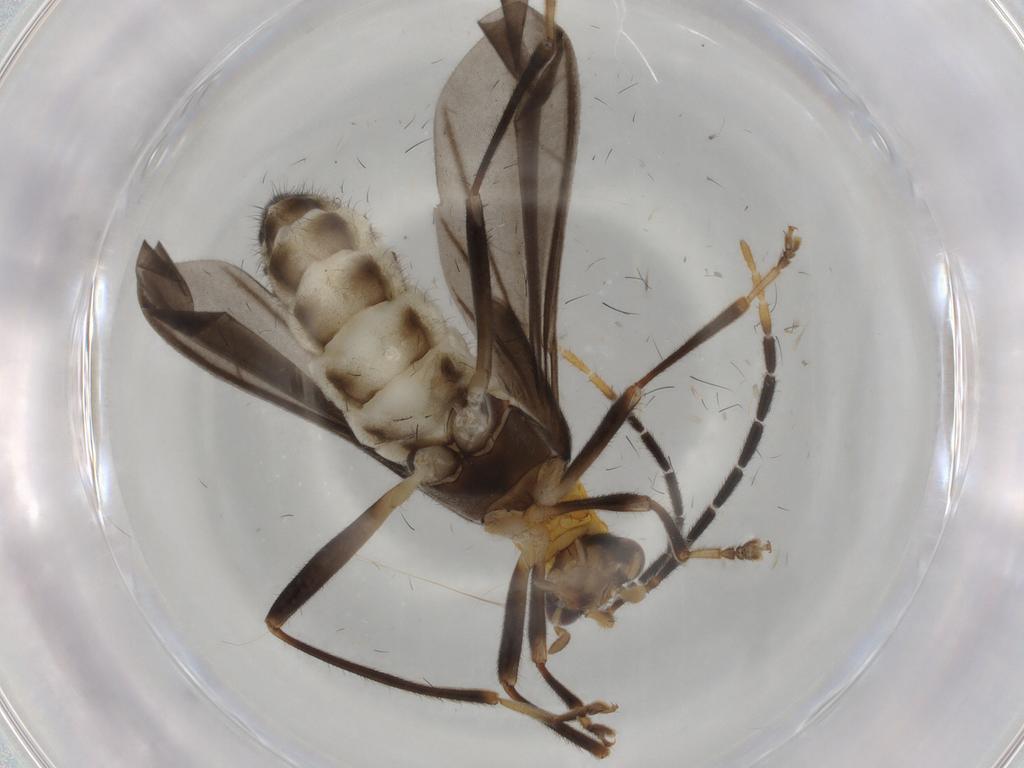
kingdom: Animalia
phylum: Arthropoda
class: Insecta
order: Coleoptera
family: Cantharidae
